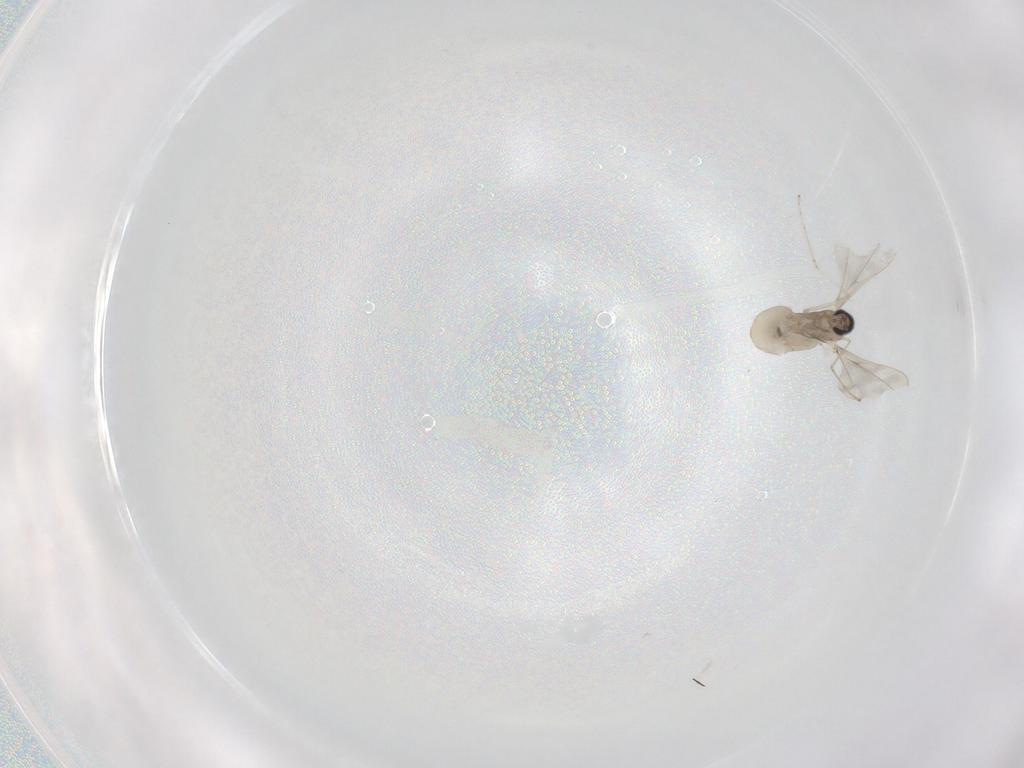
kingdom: Animalia
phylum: Arthropoda
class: Insecta
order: Diptera
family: Cecidomyiidae
